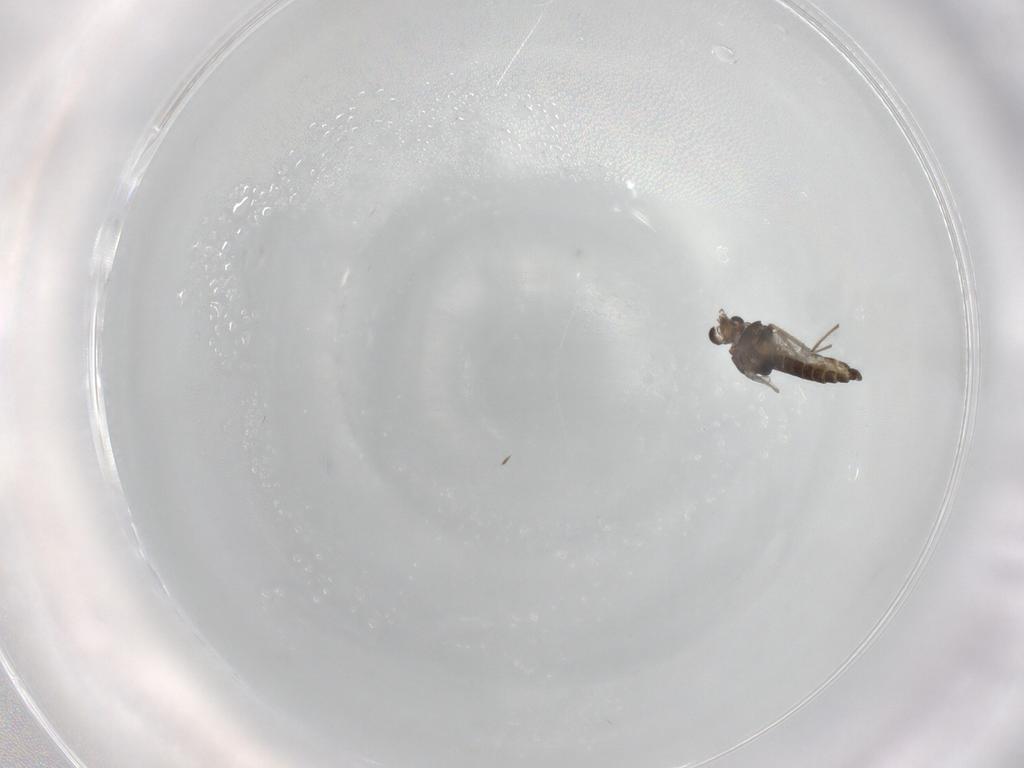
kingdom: Animalia
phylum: Arthropoda
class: Insecta
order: Diptera
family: Chironomidae
